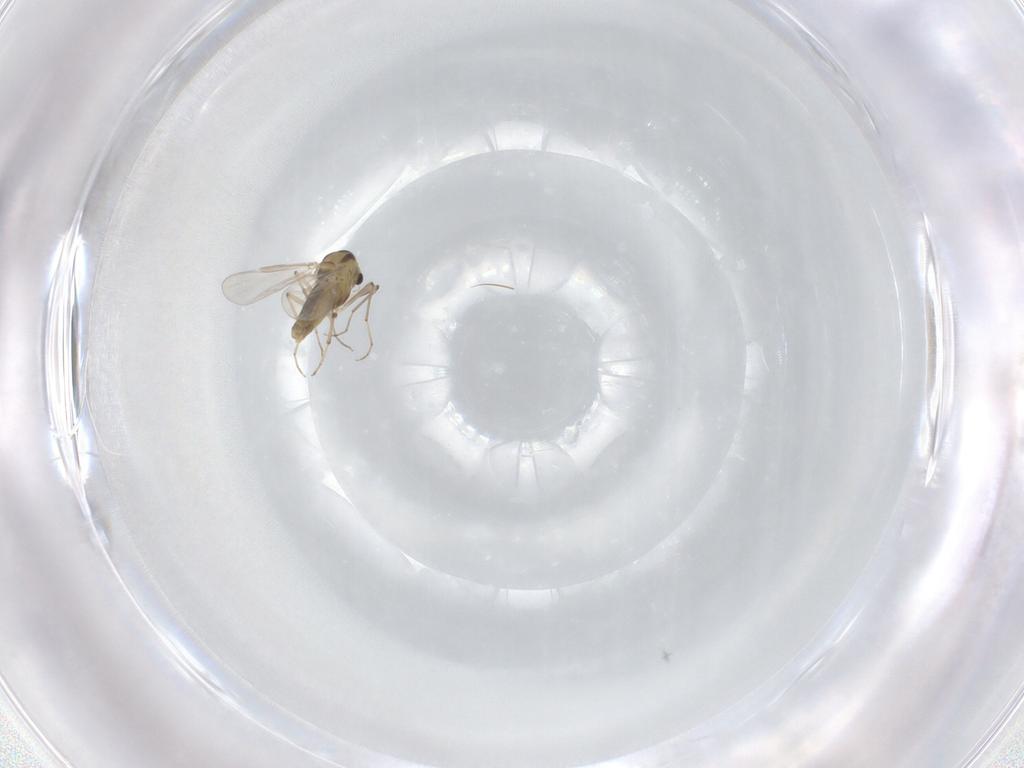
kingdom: Animalia
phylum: Arthropoda
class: Insecta
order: Diptera
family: Chironomidae
